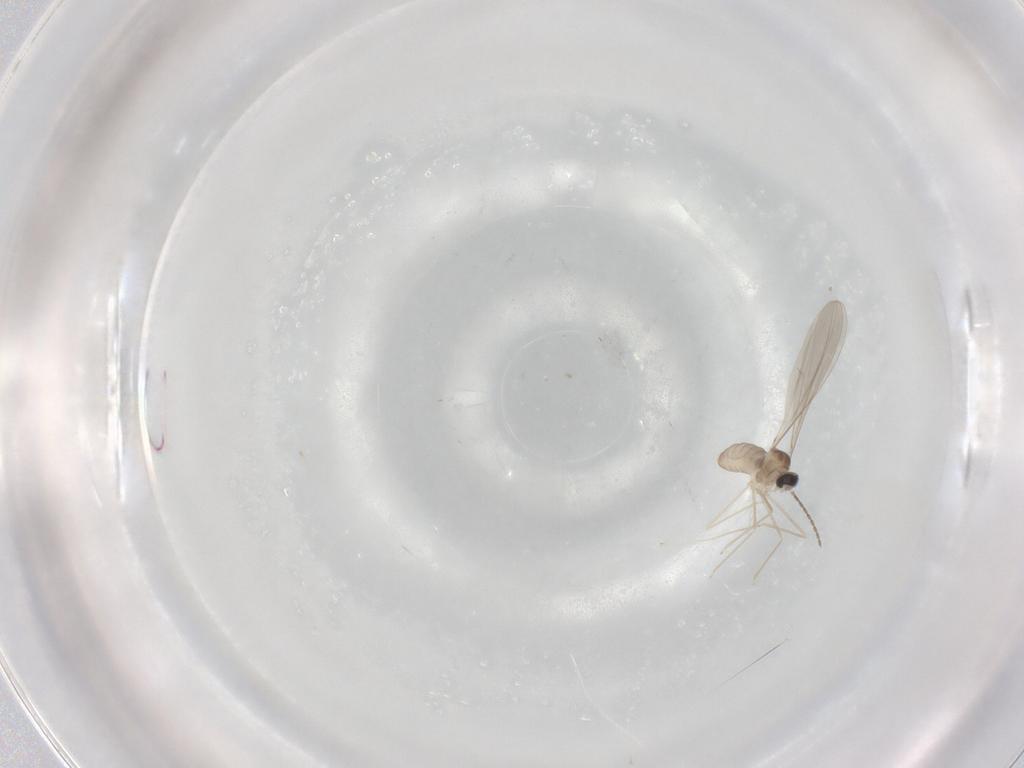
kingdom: Animalia
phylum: Arthropoda
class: Insecta
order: Diptera
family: Cecidomyiidae
